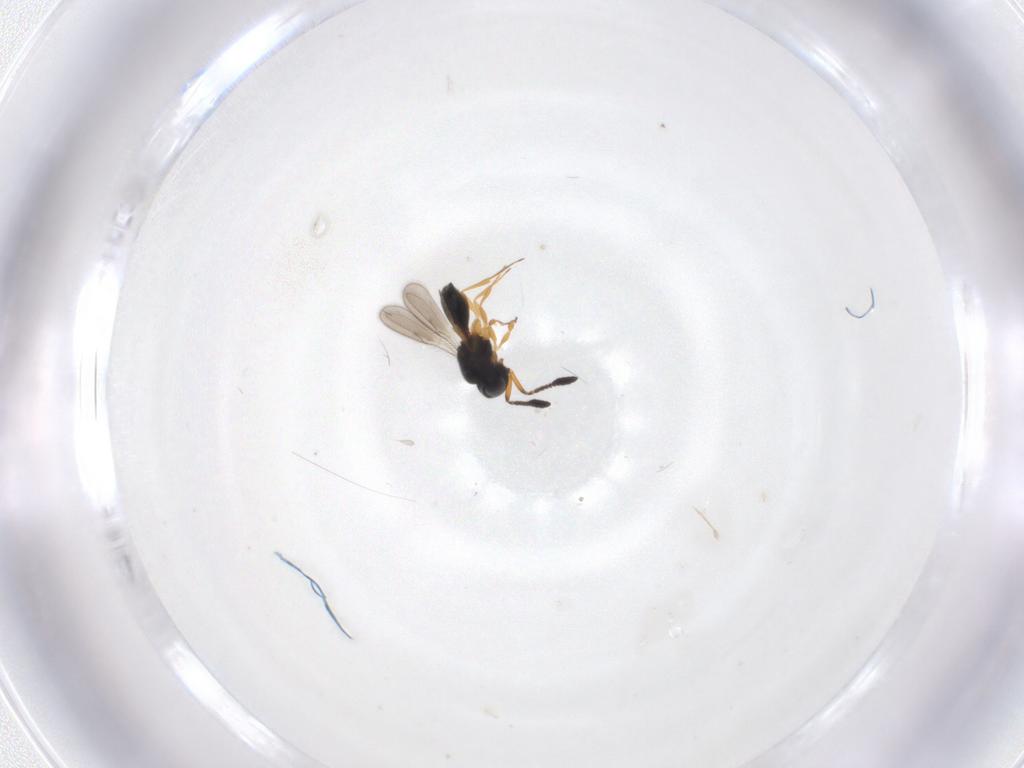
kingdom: Animalia
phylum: Arthropoda
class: Insecta
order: Hymenoptera
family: Scelionidae
